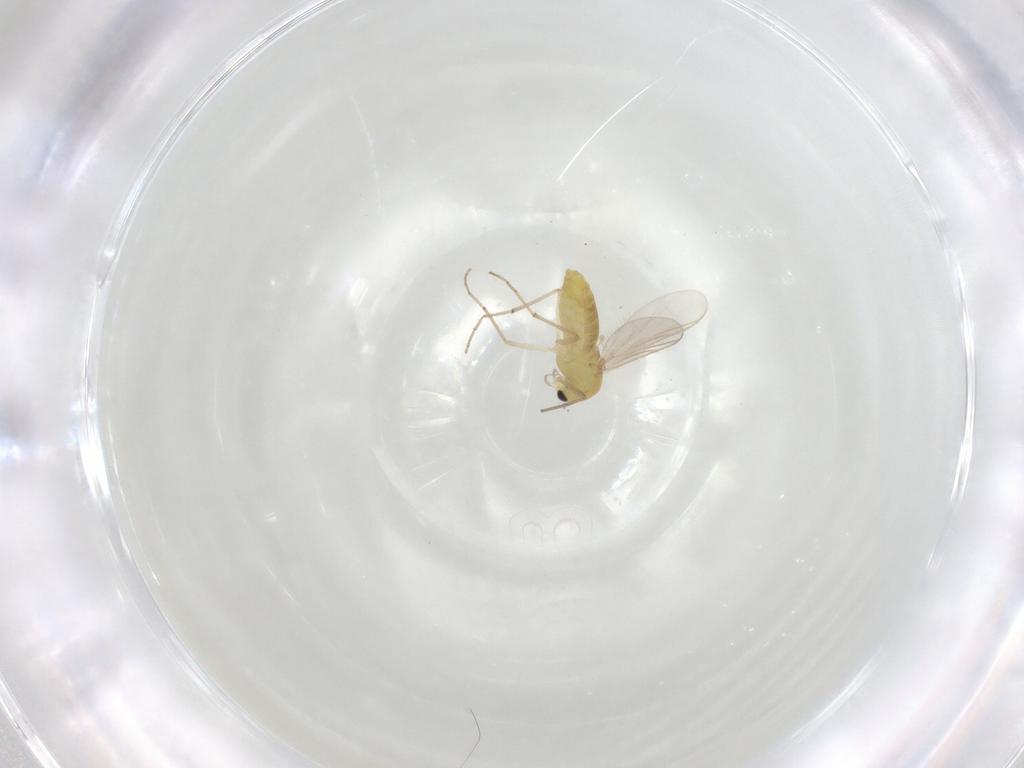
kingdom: Animalia
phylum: Arthropoda
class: Insecta
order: Diptera
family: Chironomidae
